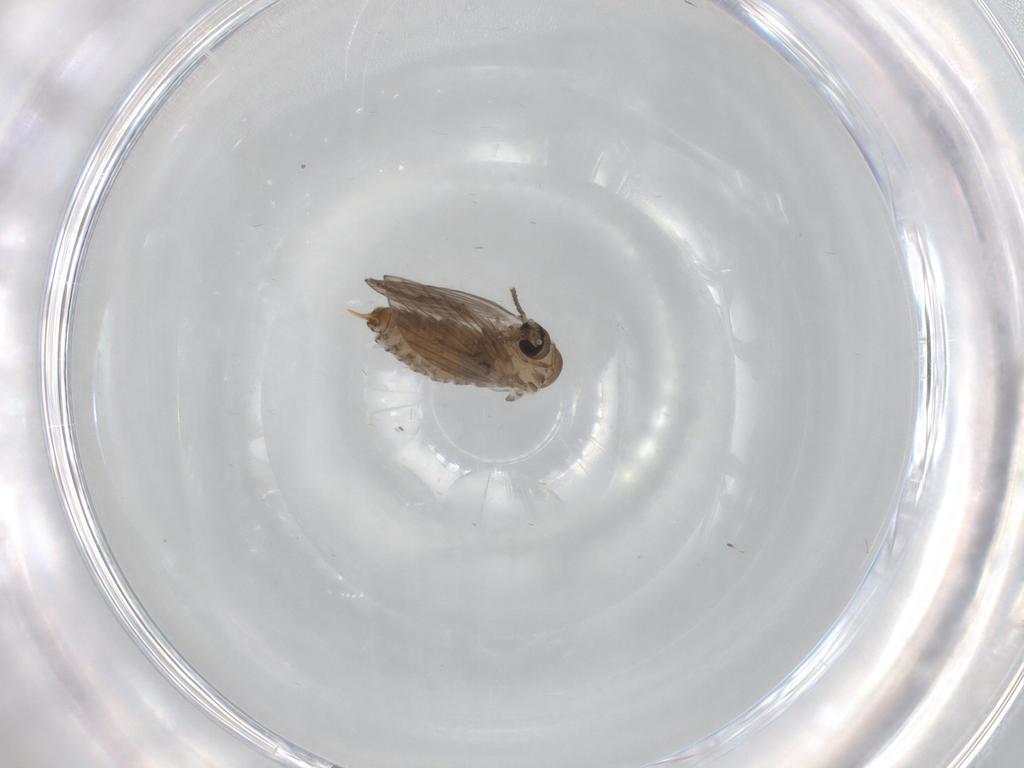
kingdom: Animalia
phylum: Arthropoda
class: Insecta
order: Diptera
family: Psychodidae
